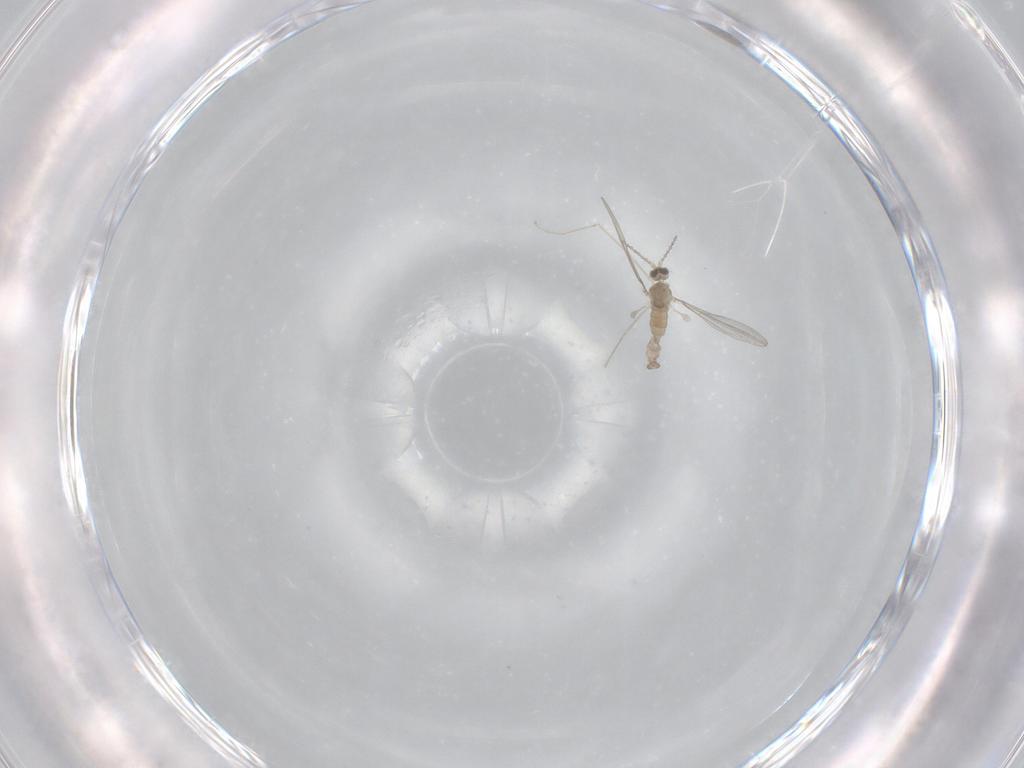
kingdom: Animalia
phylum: Arthropoda
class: Insecta
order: Diptera
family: Cecidomyiidae
